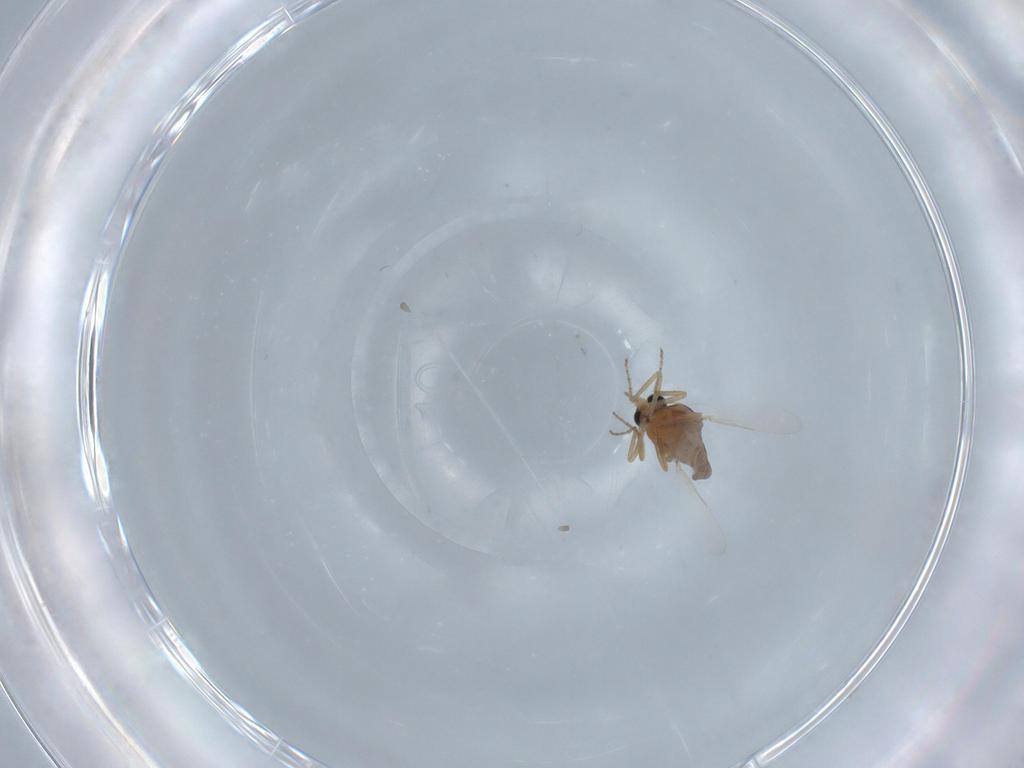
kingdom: Animalia
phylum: Arthropoda
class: Insecta
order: Diptera
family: Ceratopogonidae
